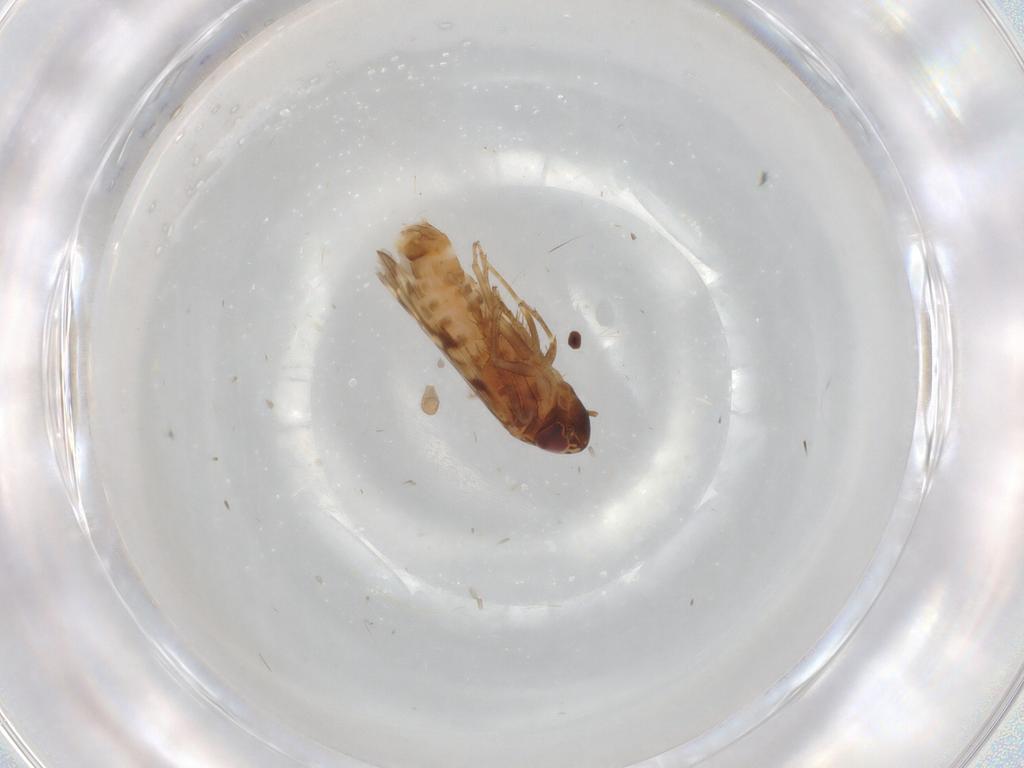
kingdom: Animalia
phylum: Arthropoda
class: Insecta
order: Hemiptera
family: Cicadellidae
